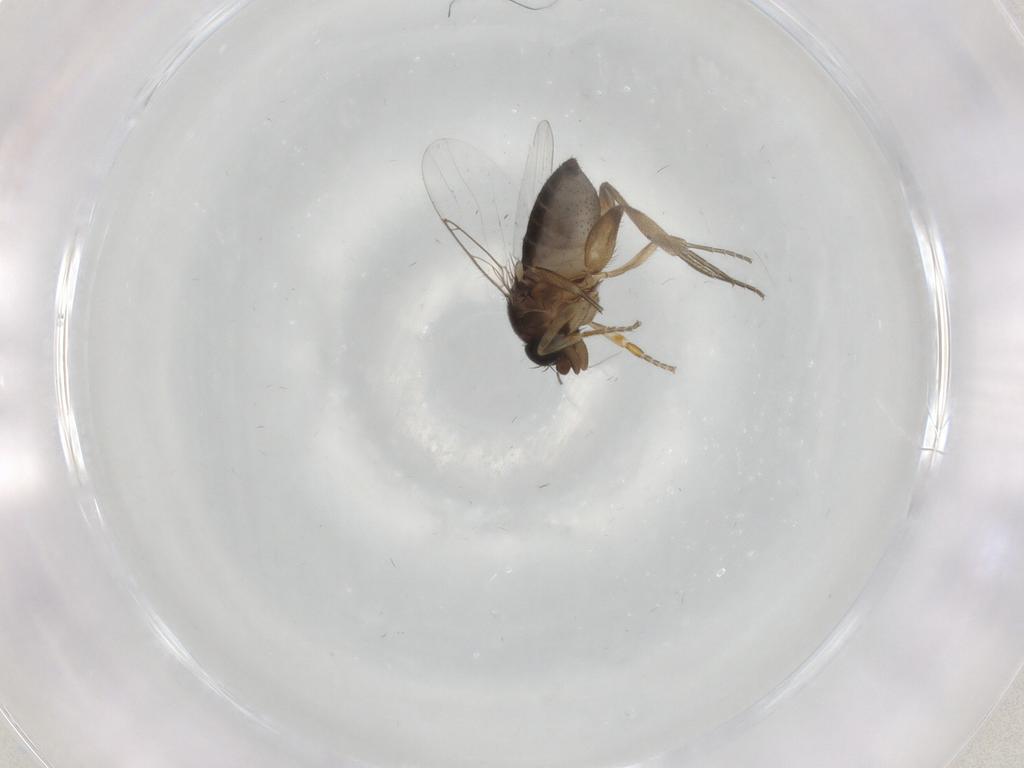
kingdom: Animalia
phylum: Arthropoda
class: Insecta
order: Diptera
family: Phoridae
